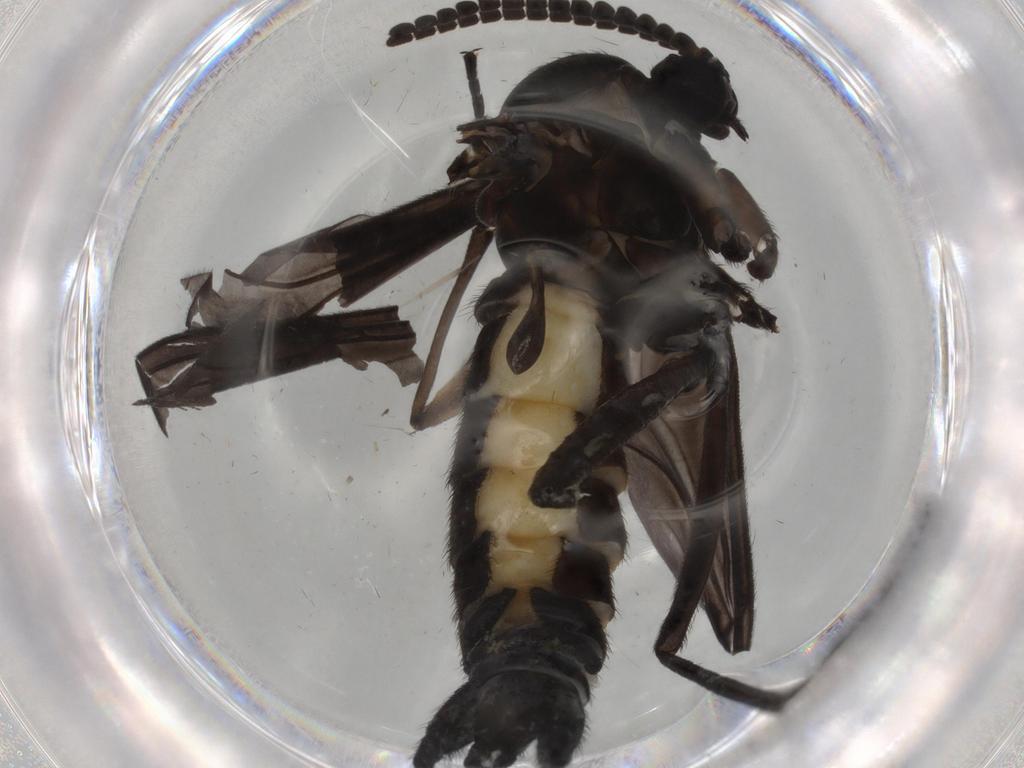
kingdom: Animalia
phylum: Arthropoda
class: Insecta
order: Diptera
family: Sciaridae
